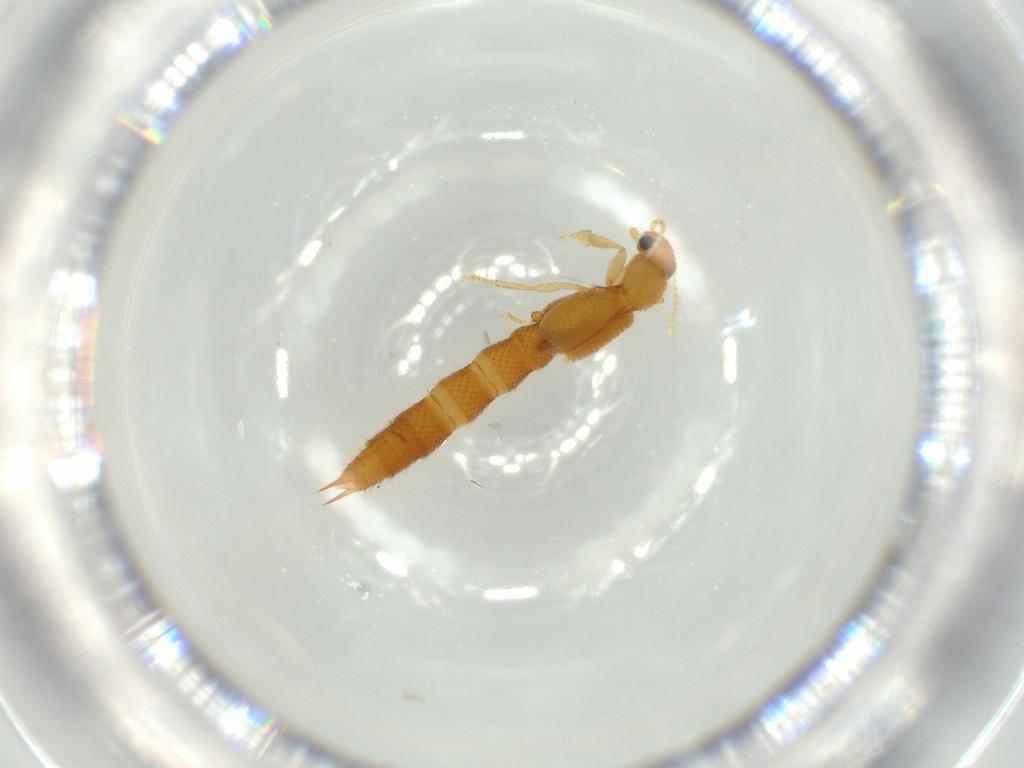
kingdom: Animalia
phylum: Arthropoda
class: Insecta
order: Coleoptera
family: Staphylinidae
